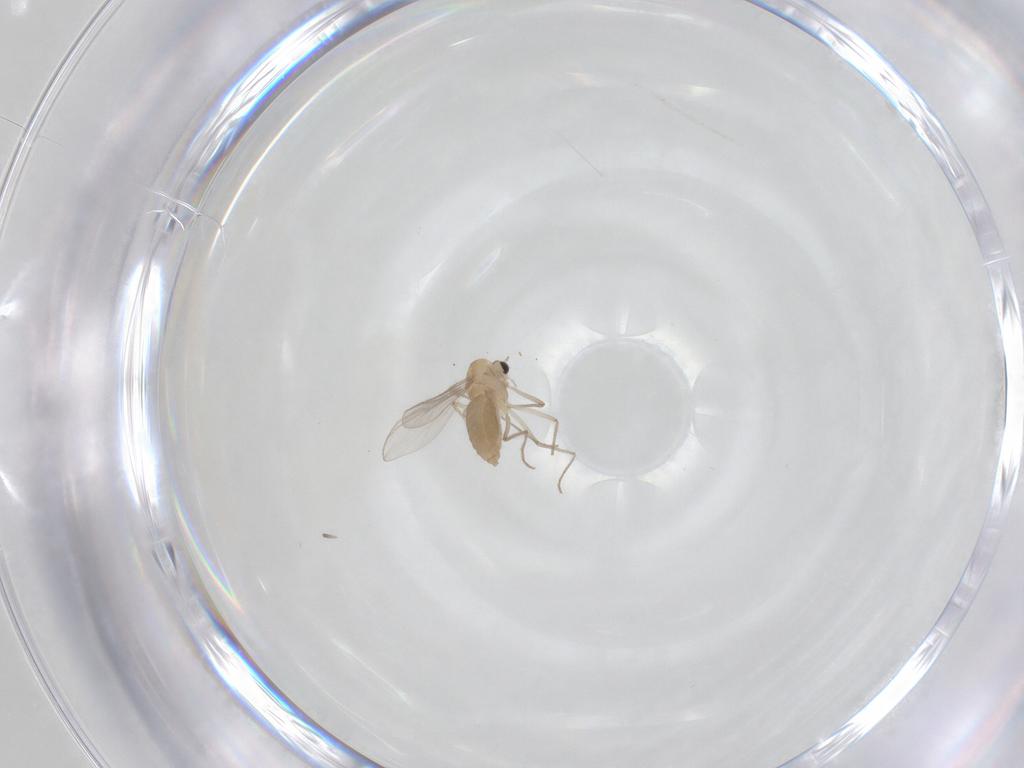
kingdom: Animalia
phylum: Arthropoda
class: Insecta
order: Diptera
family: Chironomidae
